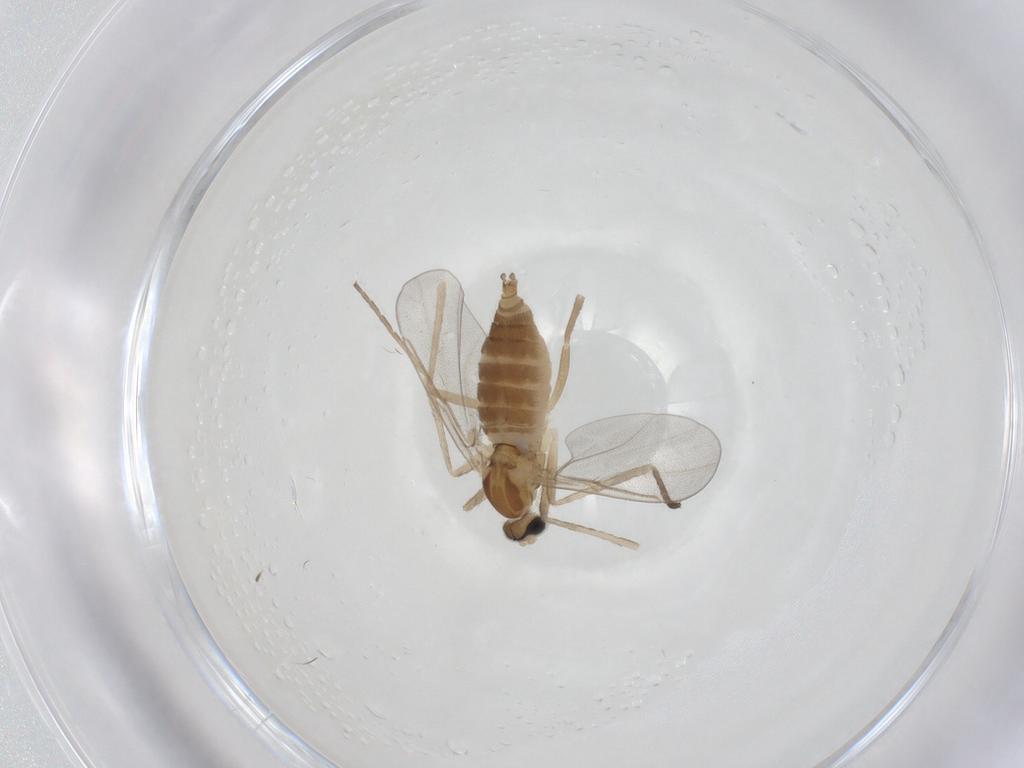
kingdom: Animalia
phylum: Arthropoda
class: Insecta
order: Diptera
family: Cecidomyiidae
